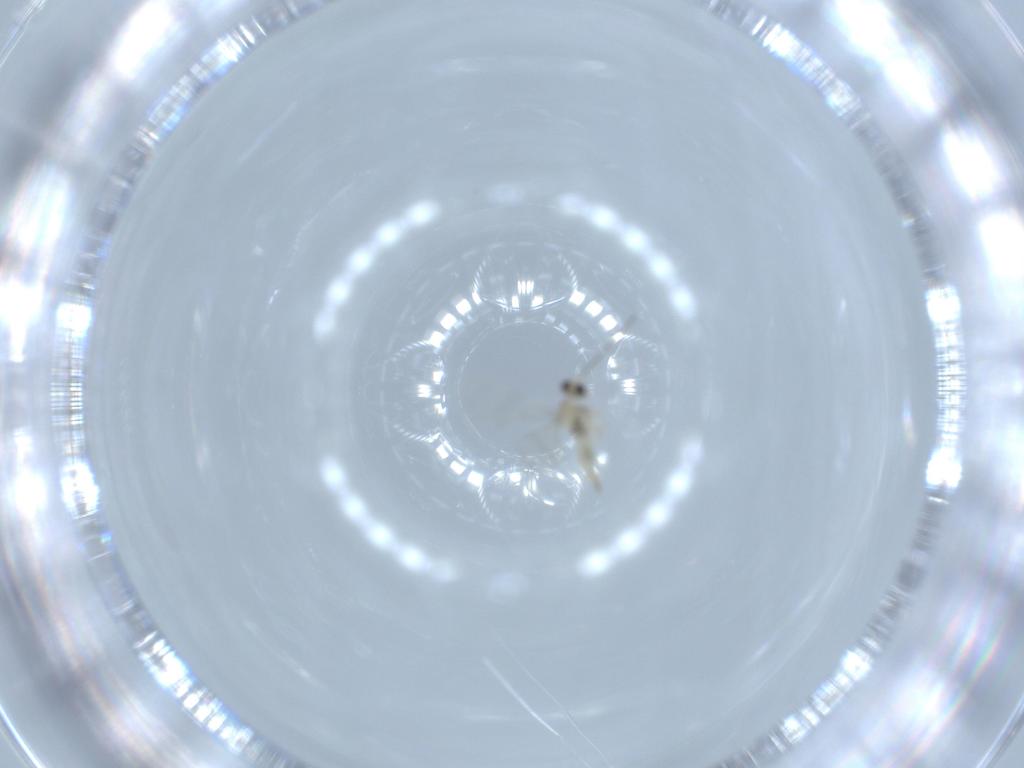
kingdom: Animalia
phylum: Arthropoda
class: Insecta
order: Diptera
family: Cecidomyiidae
